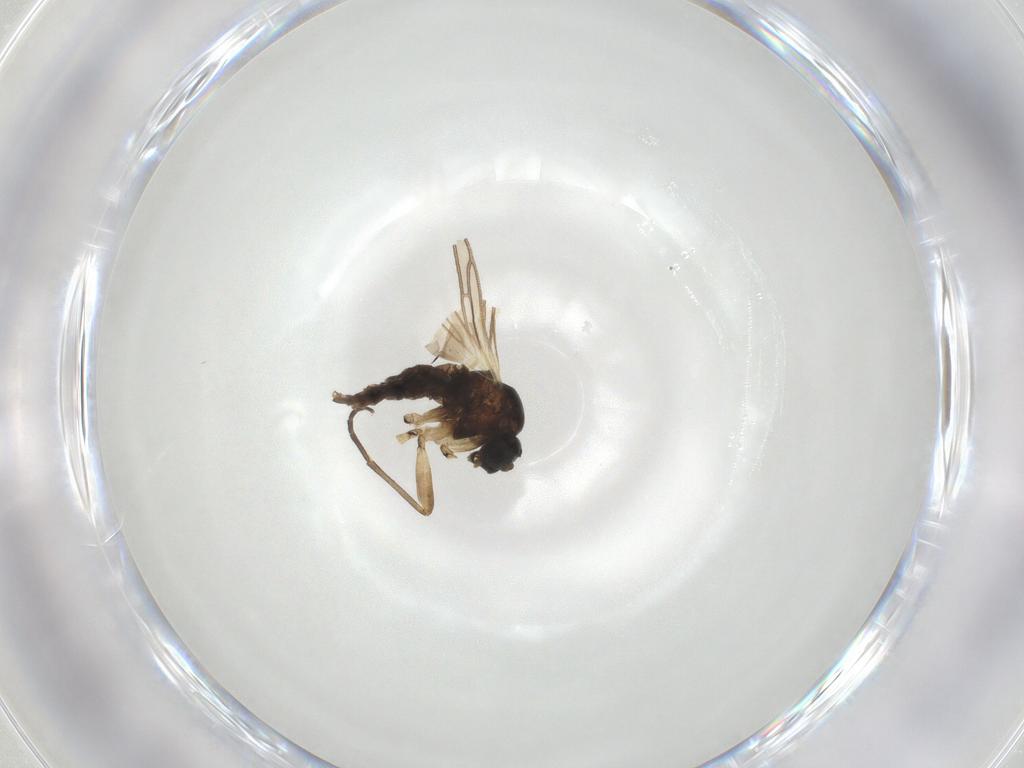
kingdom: Animalia
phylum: Arthropoda
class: Insecta
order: Diptera
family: Sciaridae
